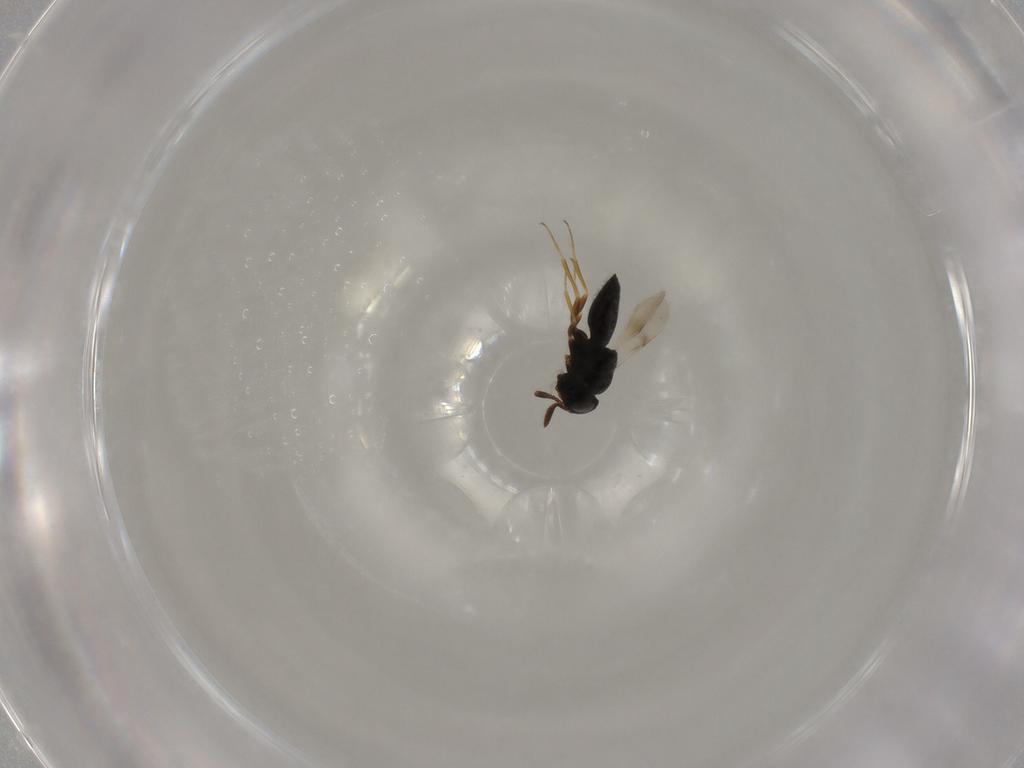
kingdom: Animalia
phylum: Arthropoda
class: Insecta
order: Hymenoptera
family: Scelionidae
